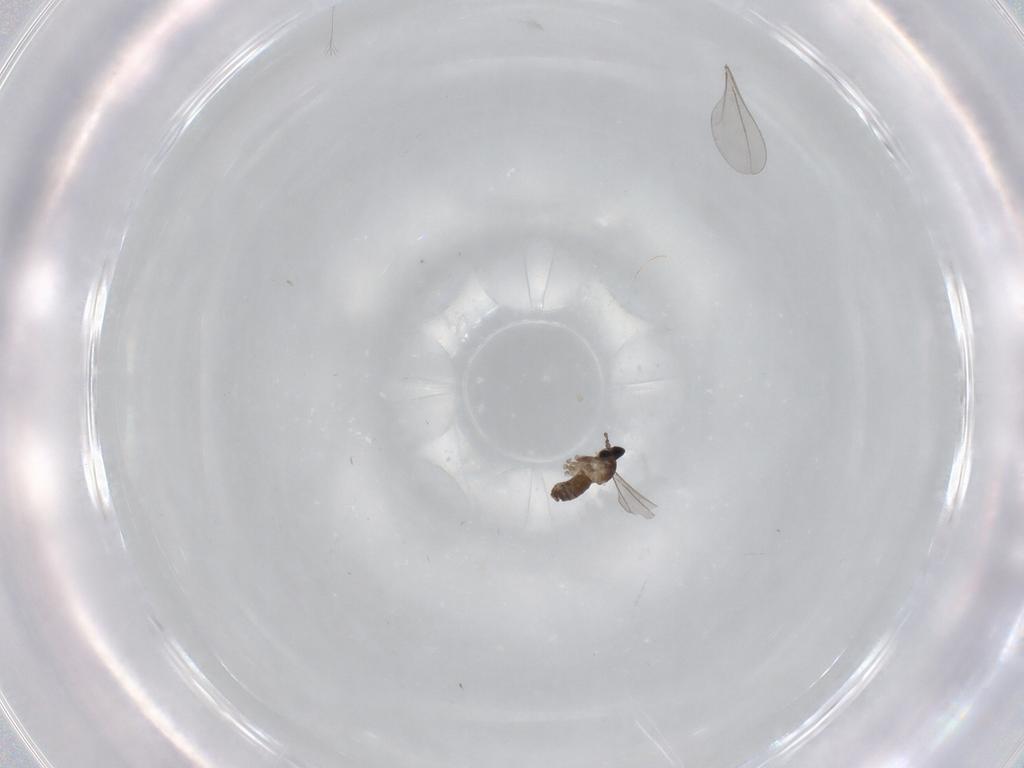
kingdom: Animalia
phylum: Arthropoda
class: Insecta
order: Diptera
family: Cecidomyiidae
